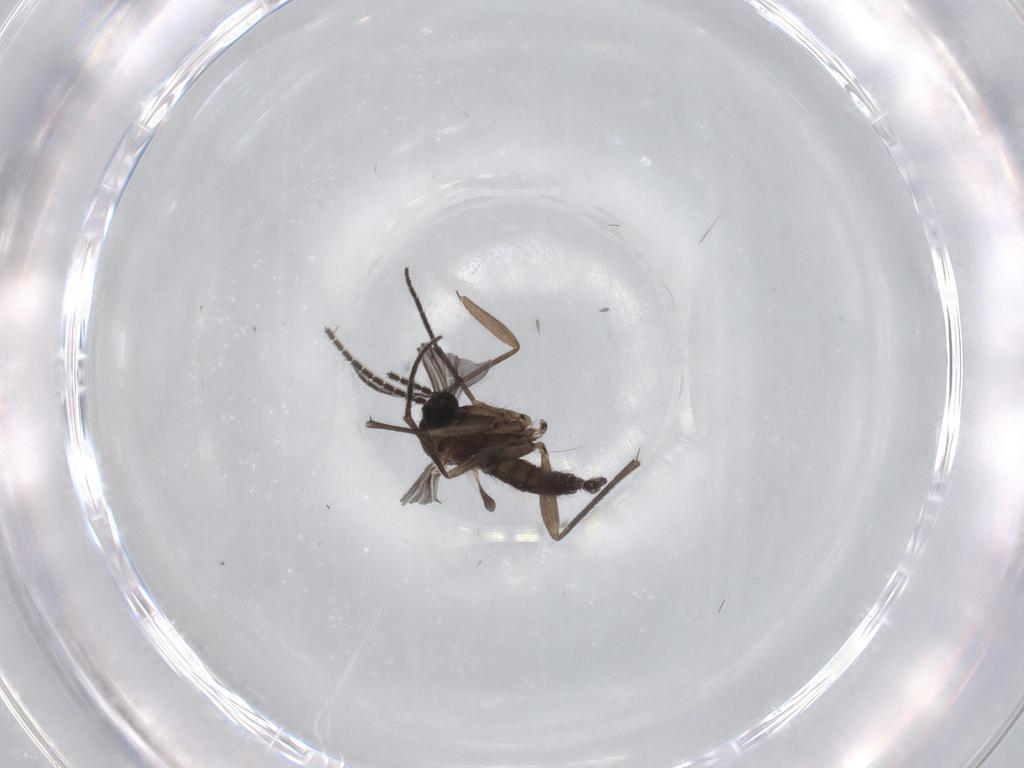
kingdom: Animalia
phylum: Arthropoda
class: Insecta
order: Diptera
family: Sciaridae
